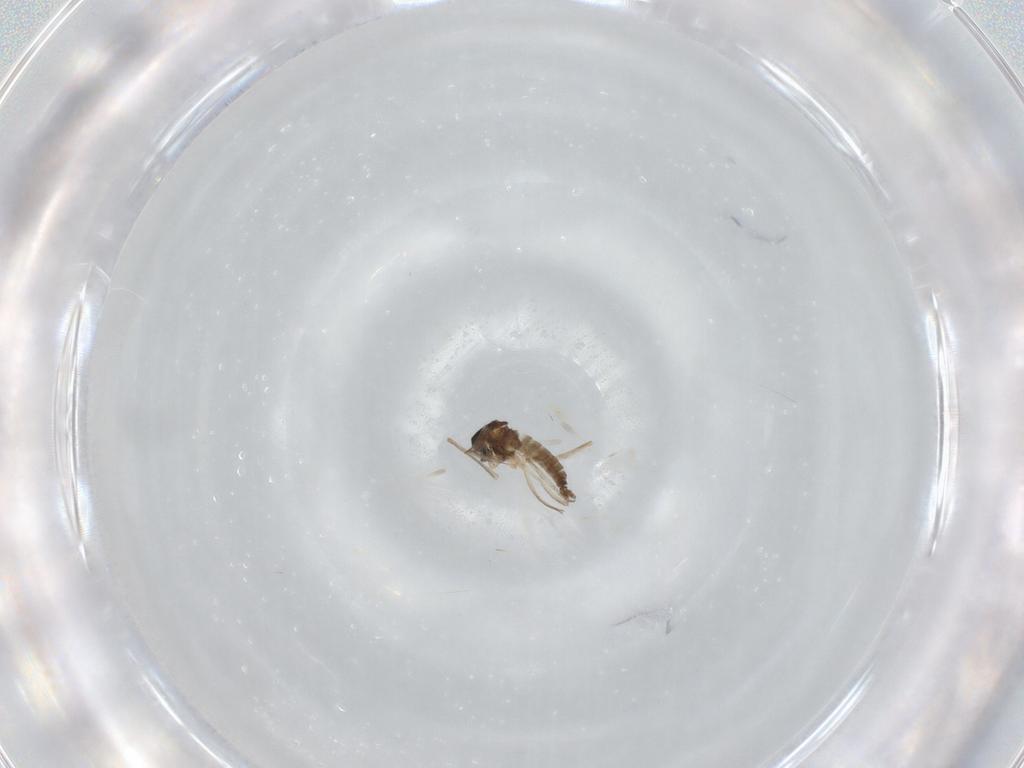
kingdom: Animalia
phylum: Arthropoda
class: Insecta
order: Diptera
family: Cecidomyiidae
